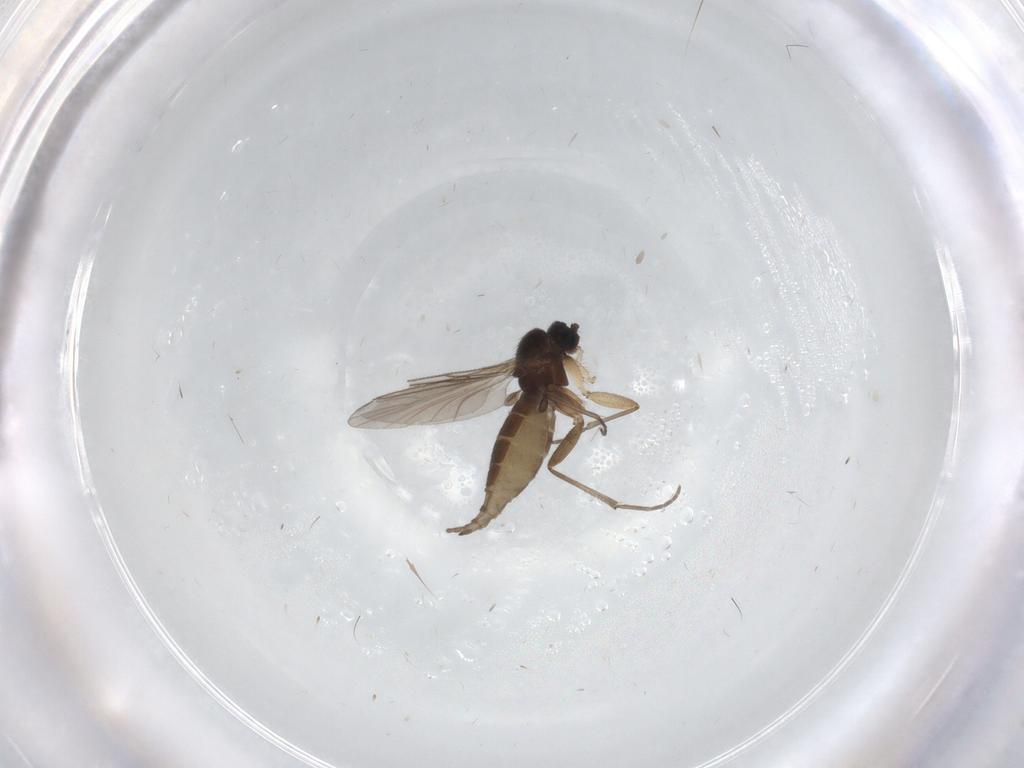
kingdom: Animalia
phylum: Arthropoda
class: Insecta
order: Diptera
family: Sciaridae
